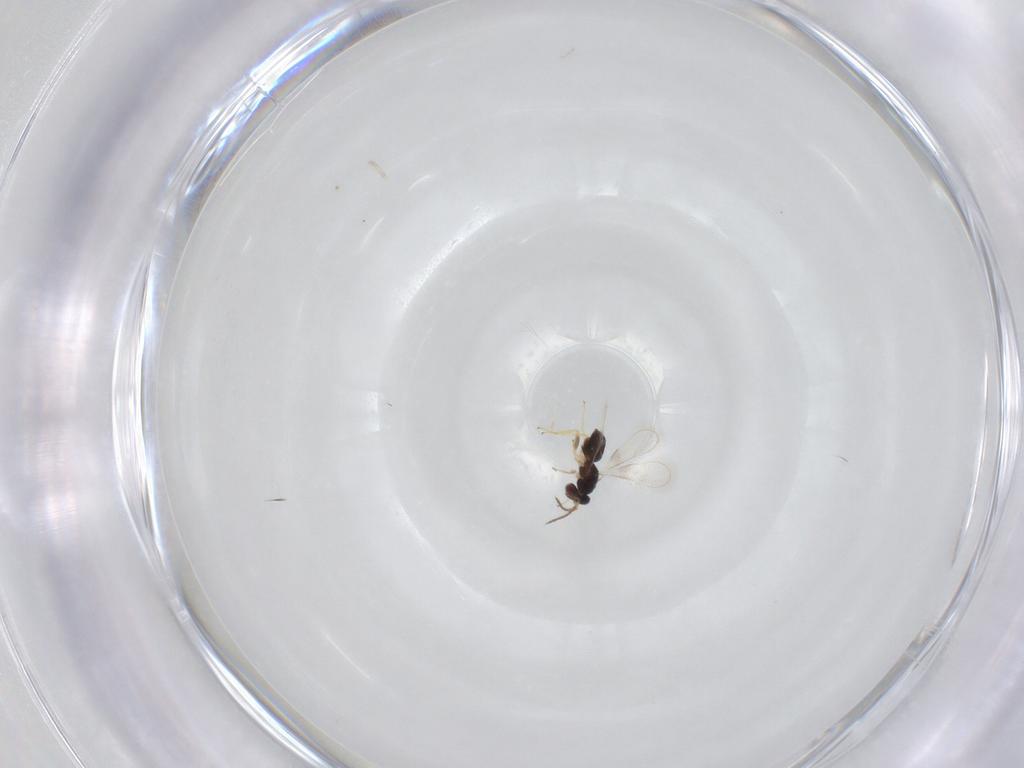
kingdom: Animalia
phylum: Arthropoda
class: Insecta
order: Hymenoptera
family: Eulophidae
